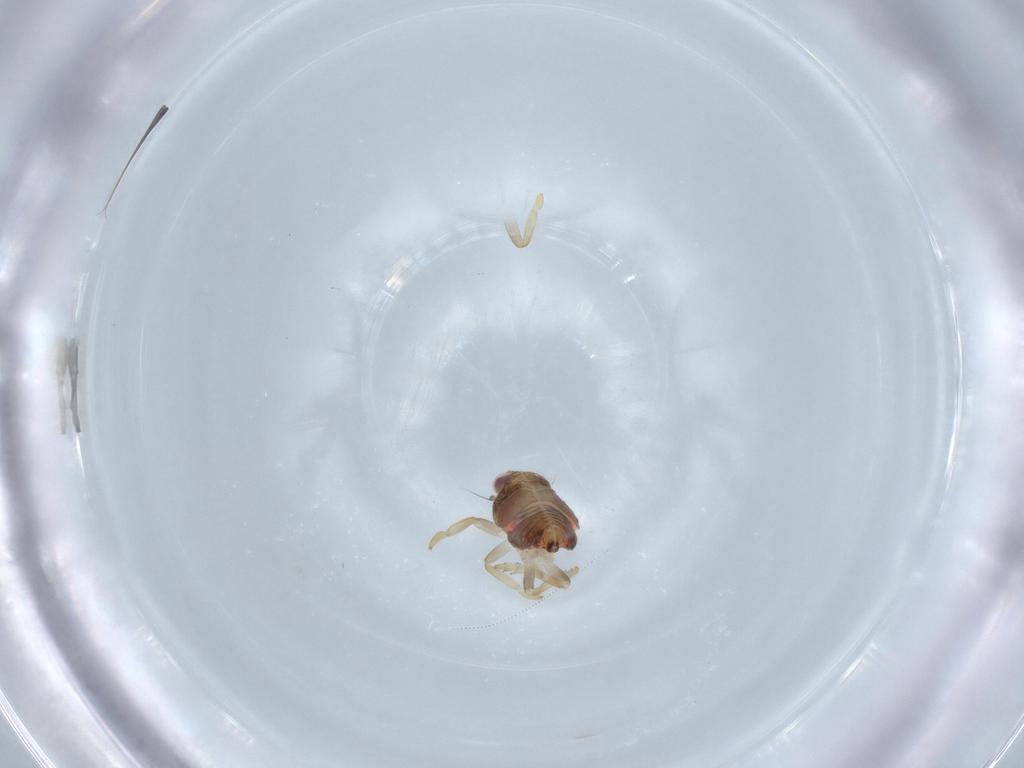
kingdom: Animalia
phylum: Arthropoda
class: Insecta
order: Hemiptera
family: Issidae
